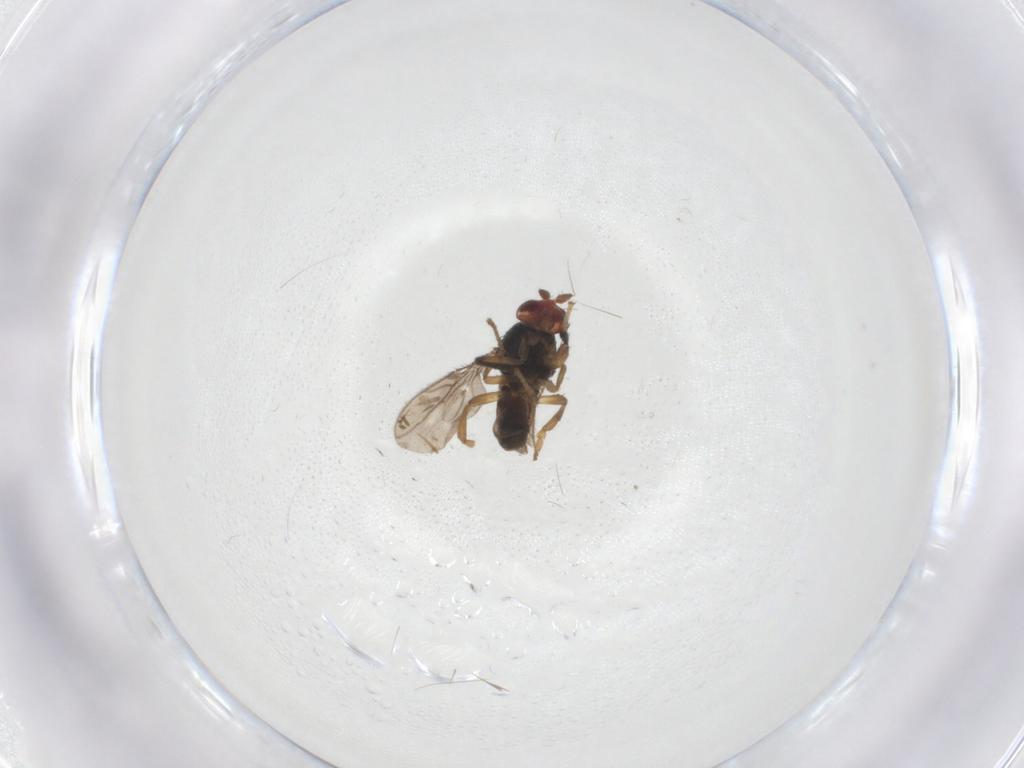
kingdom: Animalia
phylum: Arthropoda
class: Insecta
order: Diptera
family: Cecidomyiidae
